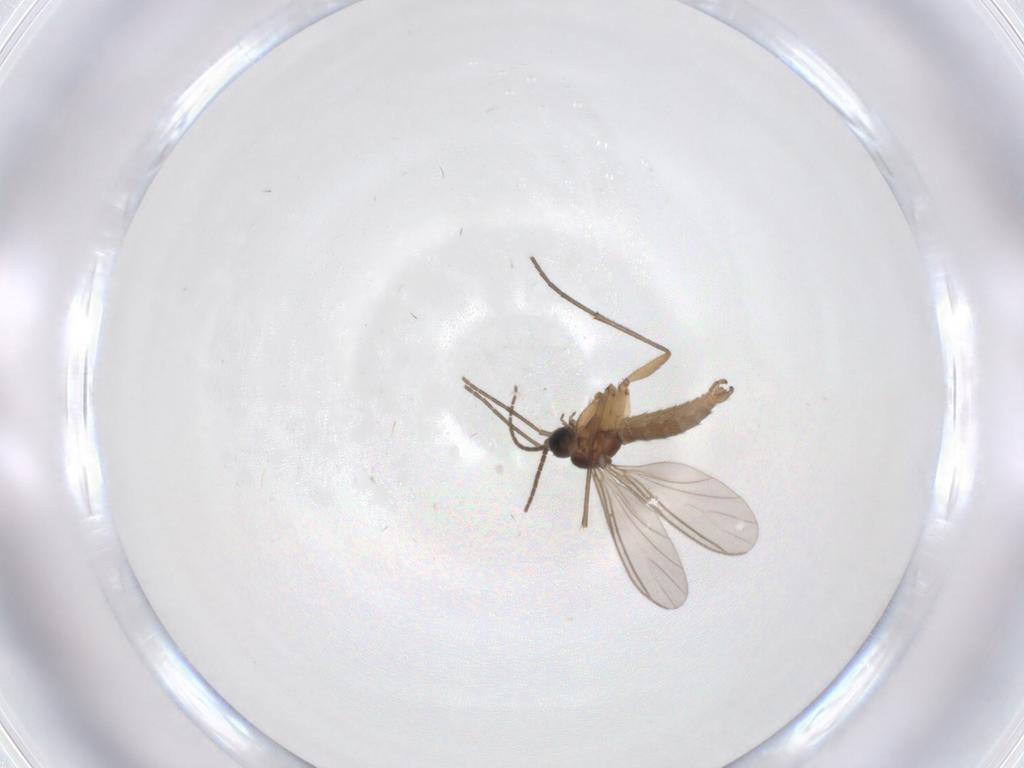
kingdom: Animalia
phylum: Arthropoda
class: Insecta
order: Diptera
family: Sciaridae
